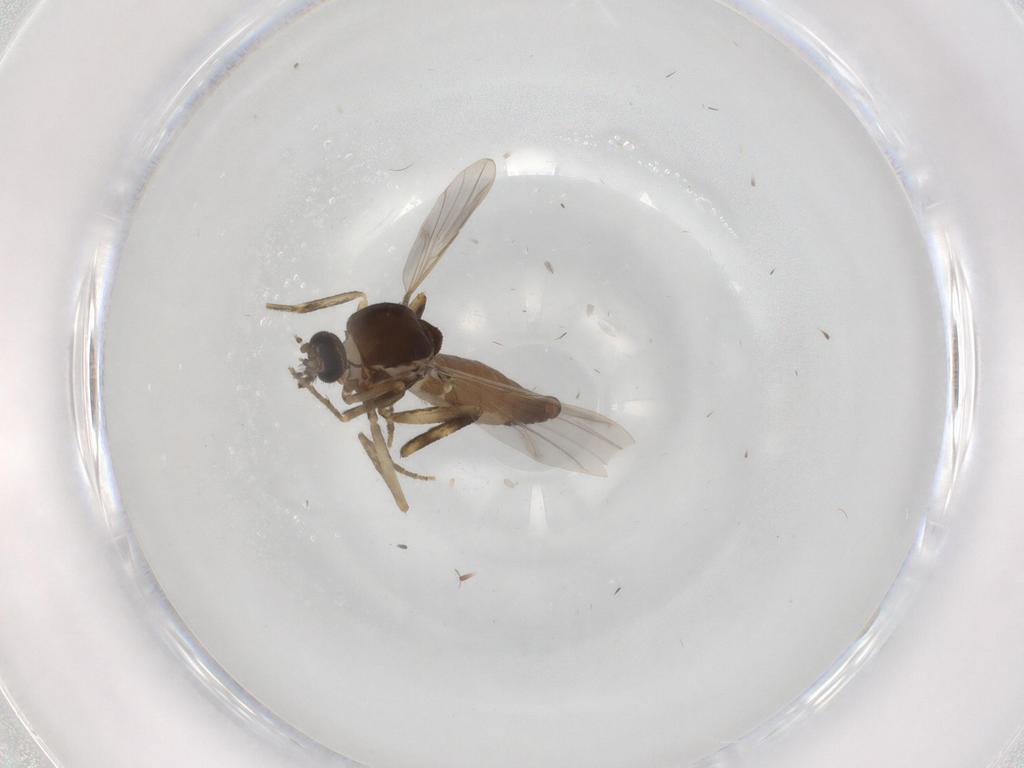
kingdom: Animalia
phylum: Arthropoda
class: Insecta
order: Diptera
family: Ceratopogonidae
